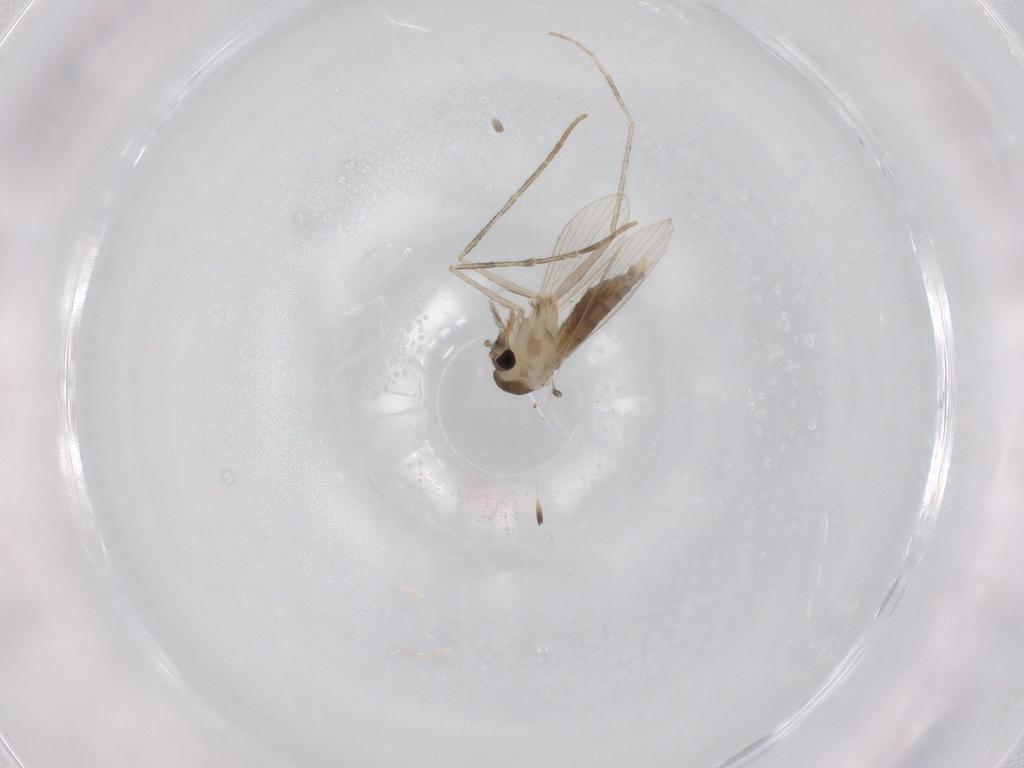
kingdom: Animalia
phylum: Arthropoda
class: Insecta
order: Diptera
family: Psychodidae
